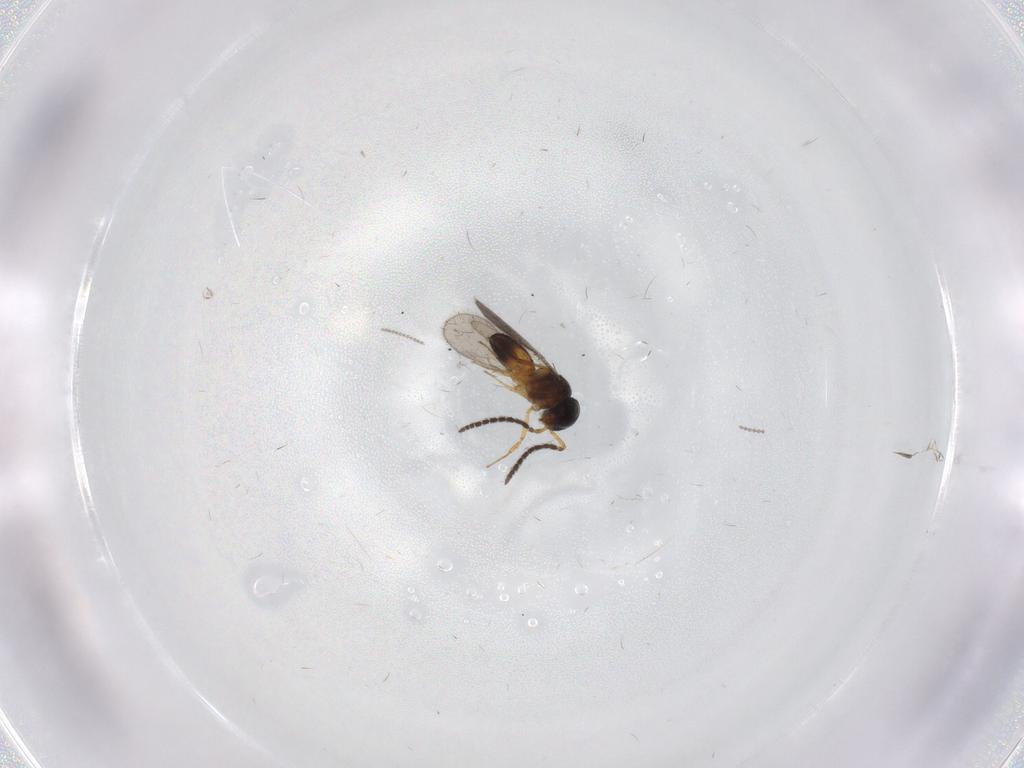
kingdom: Animalia
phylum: Arthropoda
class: Insecta
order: Hymenoptera
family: Scelionidae
